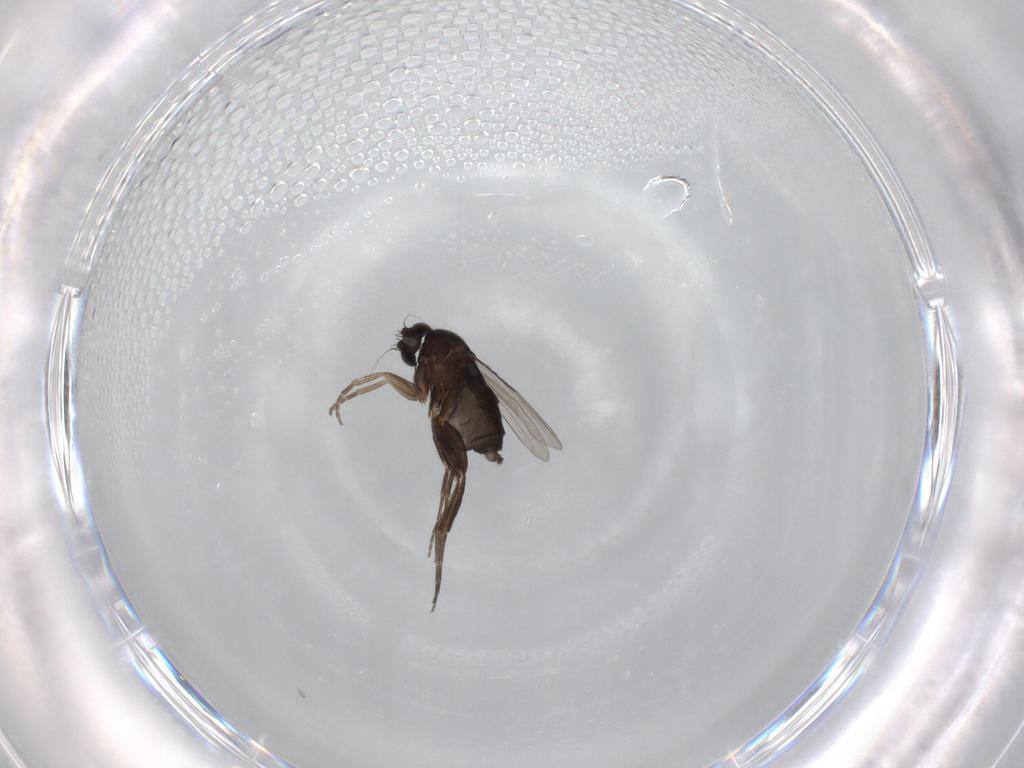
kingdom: Animalia
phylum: Arthropoda
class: Insecta
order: Diptera
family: Phoridae
